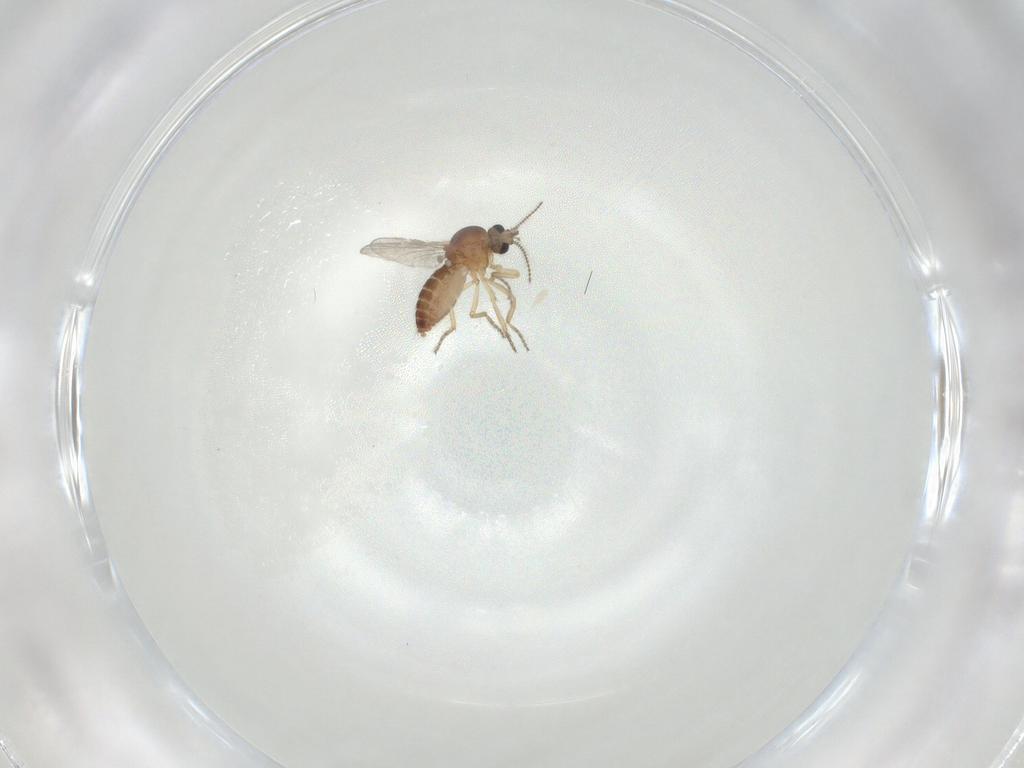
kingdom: Animalia
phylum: Arthropoda
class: Insecta
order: Diptera
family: Ceratopogonidae
